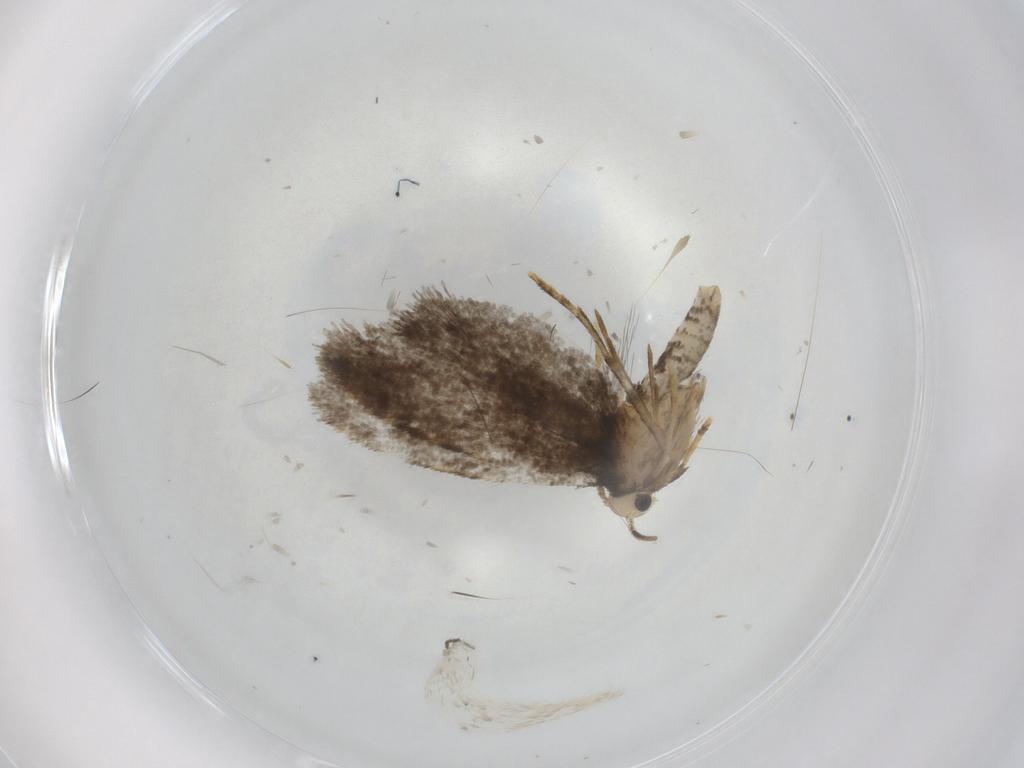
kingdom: Animalia
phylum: Arthropoda
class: Insecta
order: Lepidoptera
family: Psychidae
